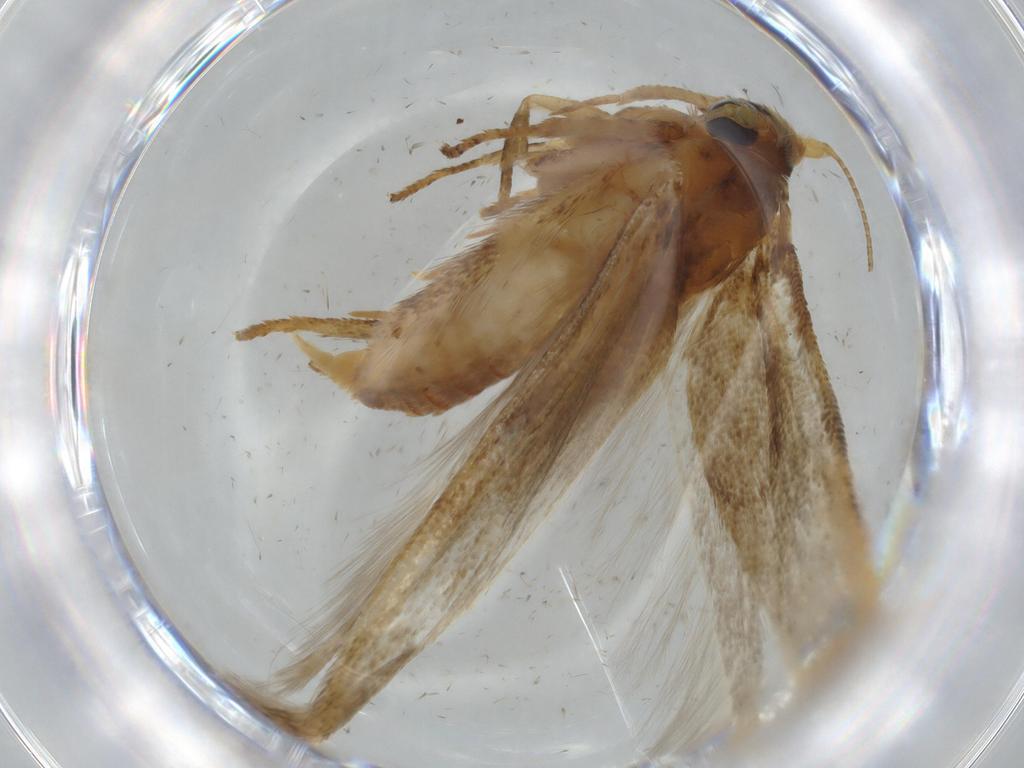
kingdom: Animalia
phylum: Arthropoda
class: Insecta
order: Lepidoptera
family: Blastobasidae
